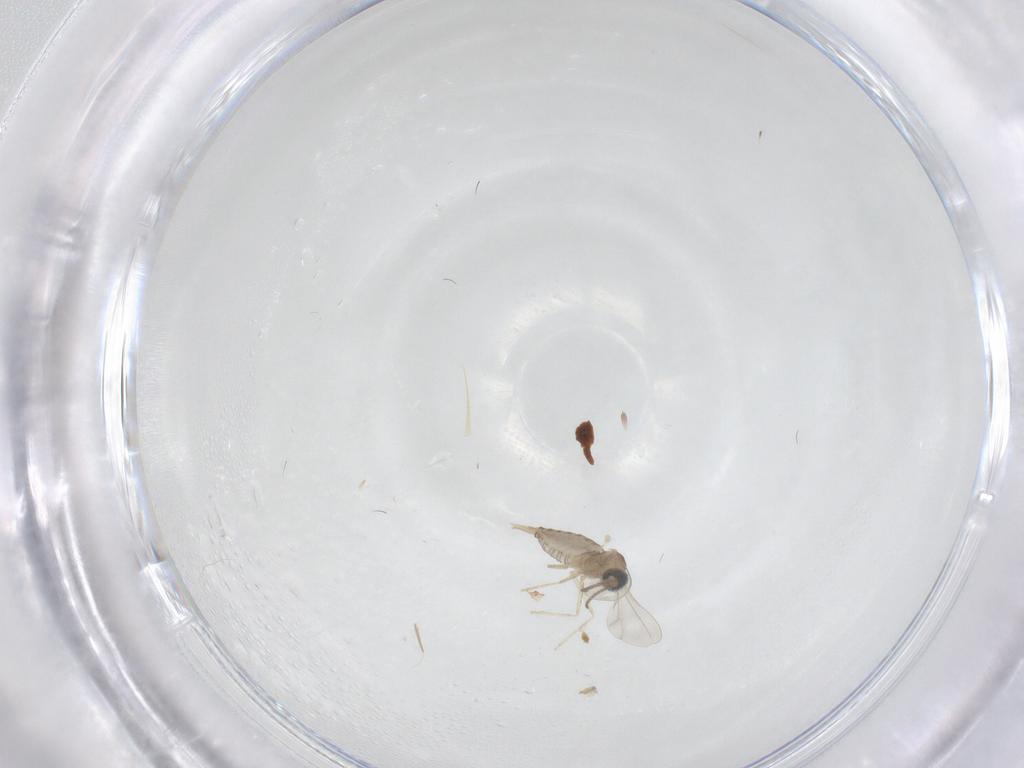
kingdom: Animalia
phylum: Arthropoda
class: Insecta
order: Diptera
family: Cecidomyiidae
